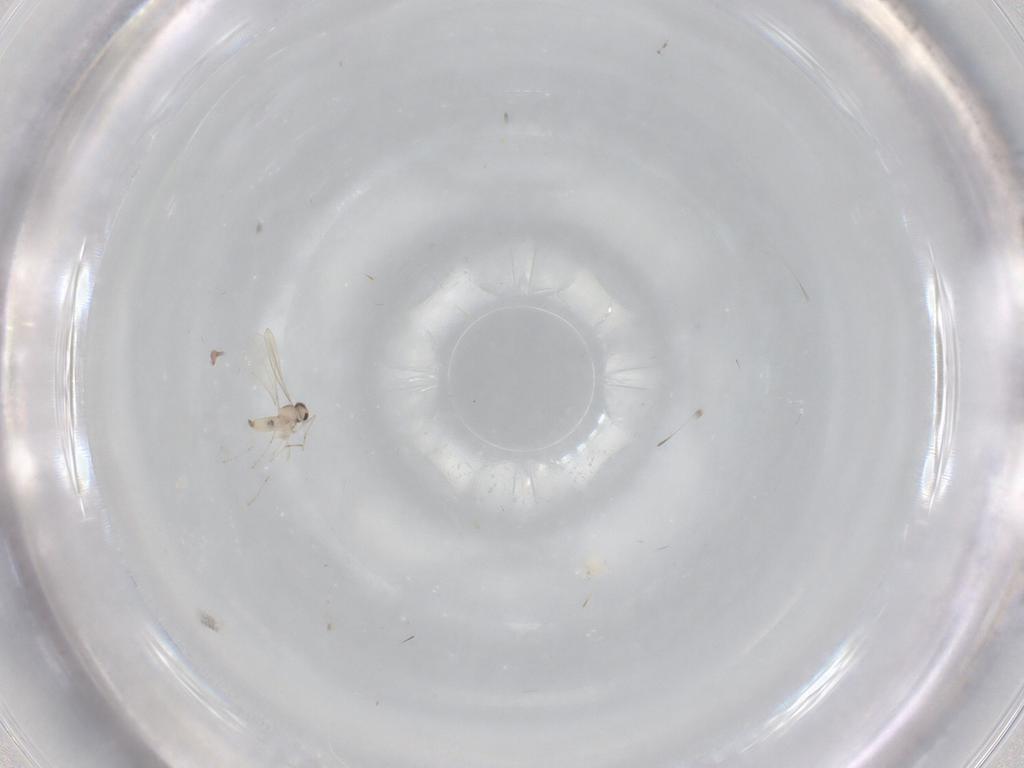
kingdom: Animalia
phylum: Arthropoda
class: Insecta
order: Diptera
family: Cecidomyiidae
